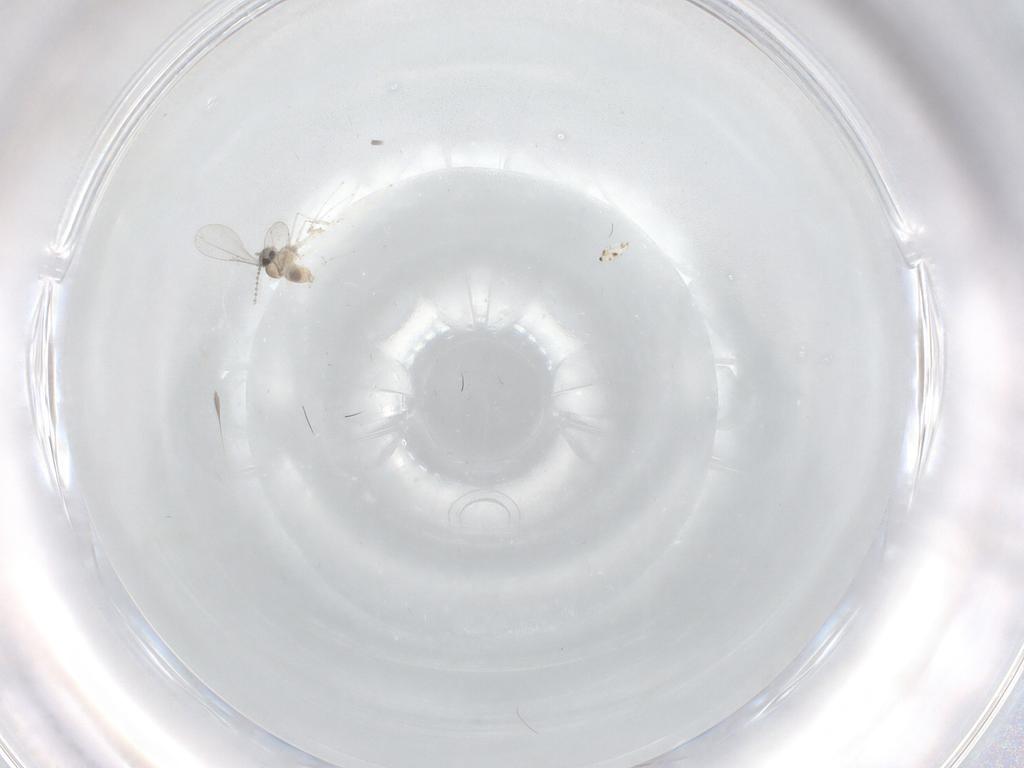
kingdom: Animalia
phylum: Arthropoda
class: Insecta
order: Diptera
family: Cecidomyiidae
